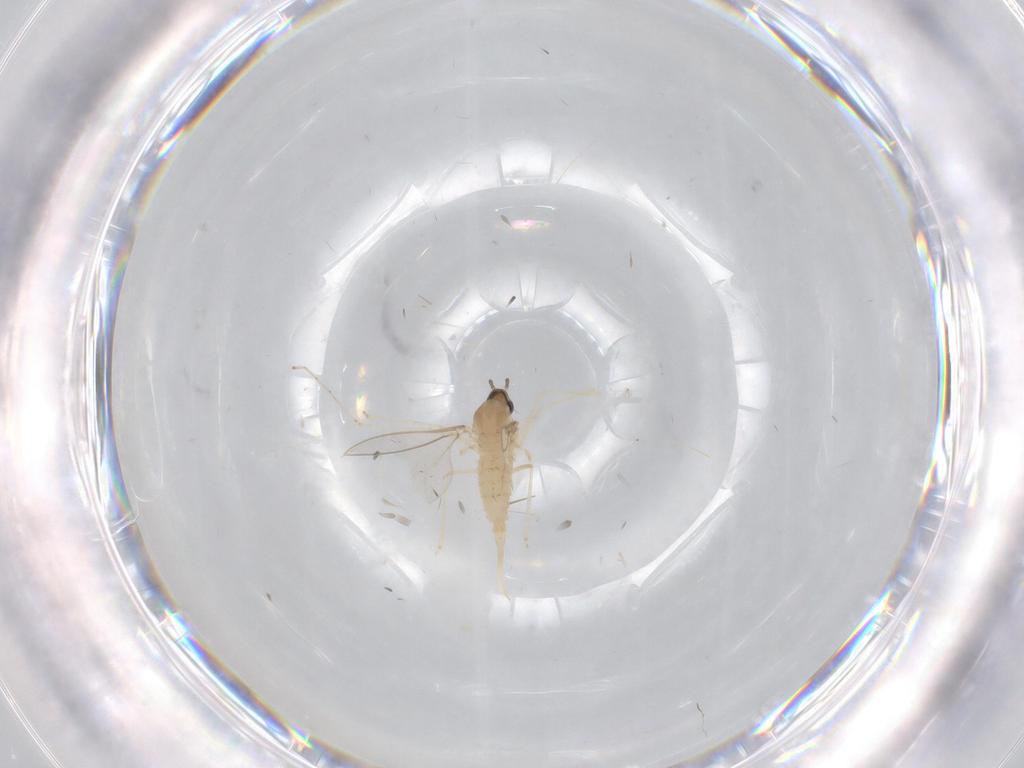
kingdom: Animalia
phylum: Arthropoda
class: Insecta
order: Diptera
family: Cecidomyiidae
